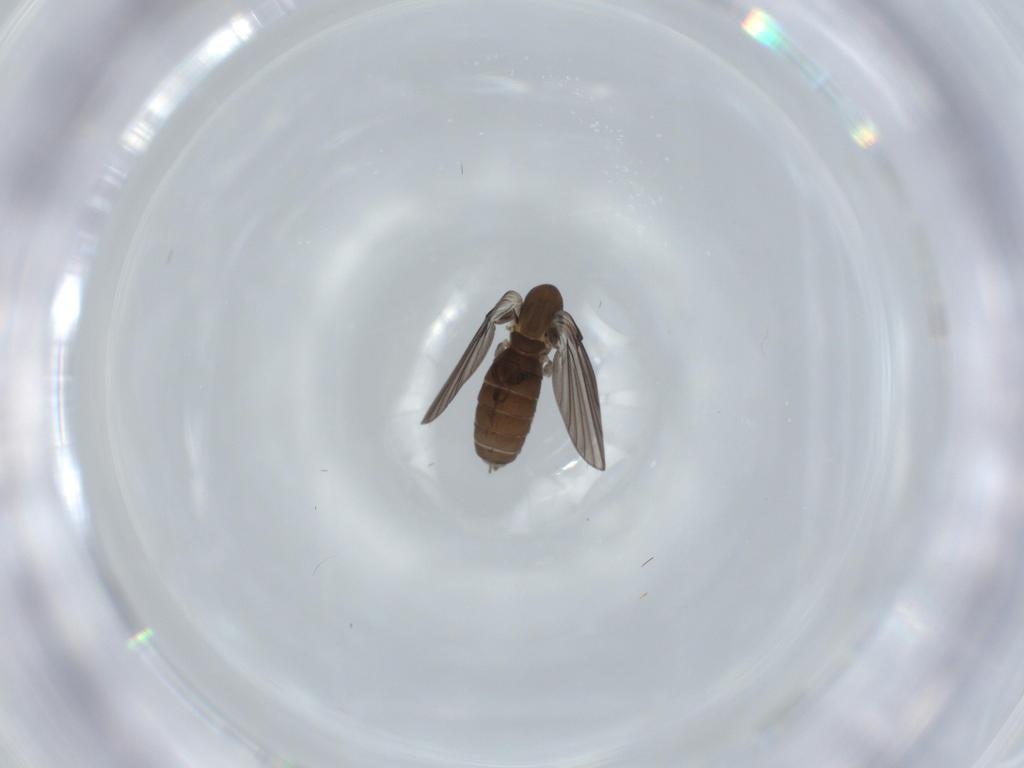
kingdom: Animalia
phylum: Arthropoda
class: Insecta
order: Diptera
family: Psychodidae
